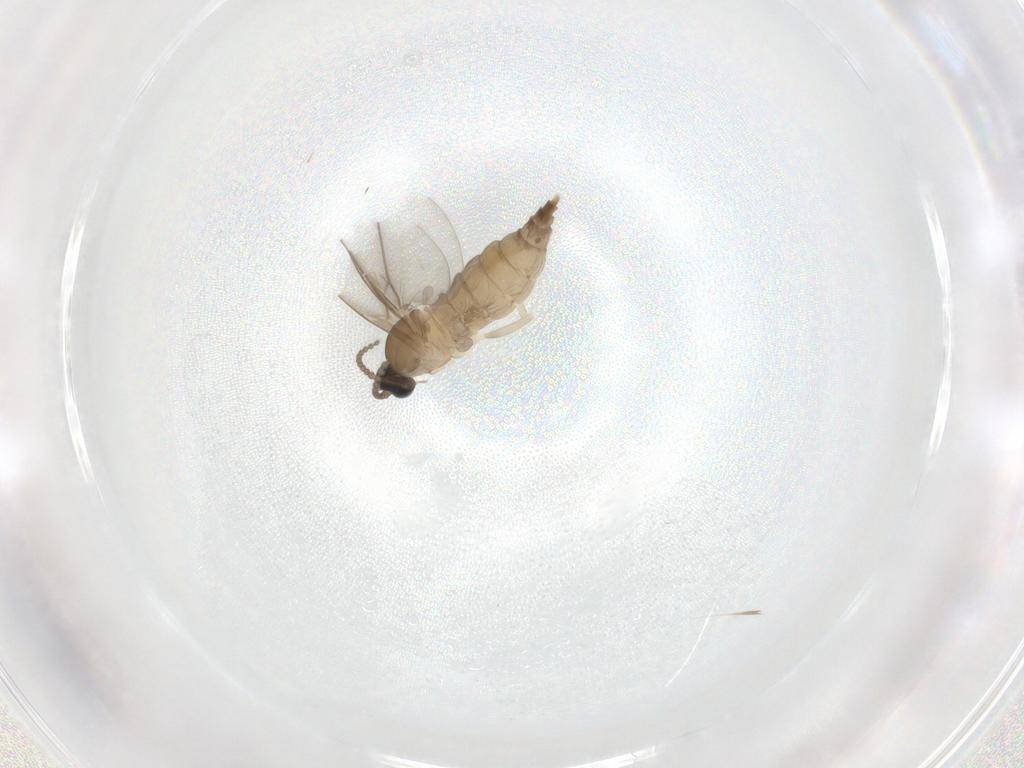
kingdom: Animalia
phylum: Arthropoda
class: Insecta
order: Diptera
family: Cecidomyiidae
